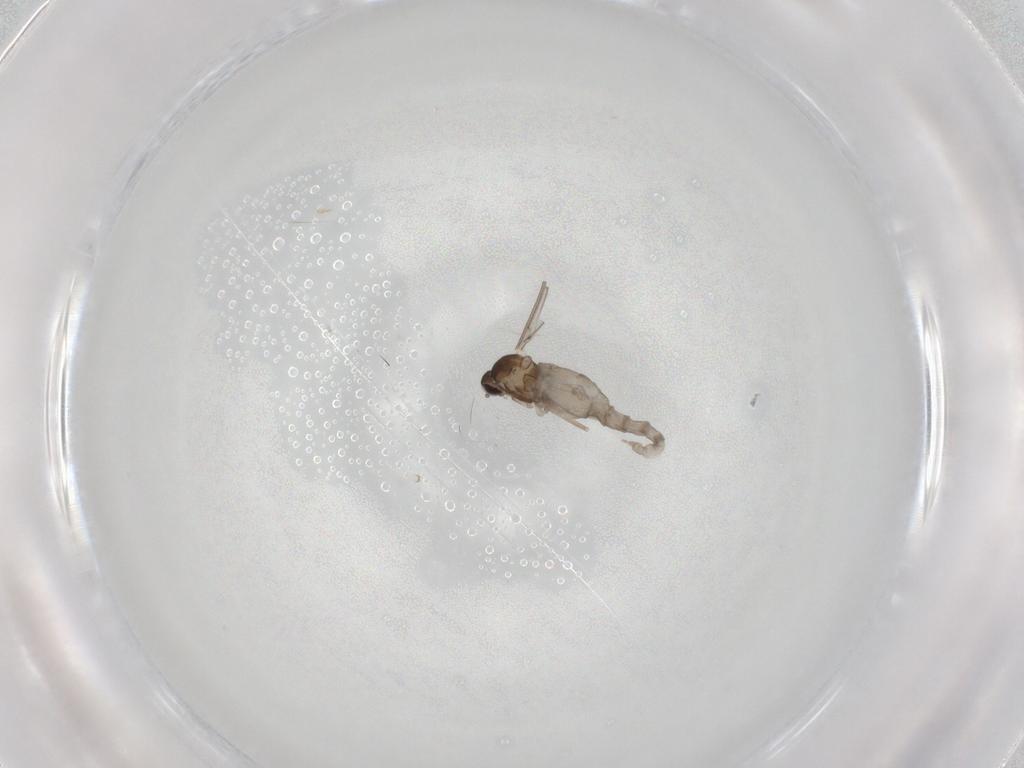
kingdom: Animalia
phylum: Arthropoda
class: Insecta
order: Diptera
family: Cecidomyiidae
